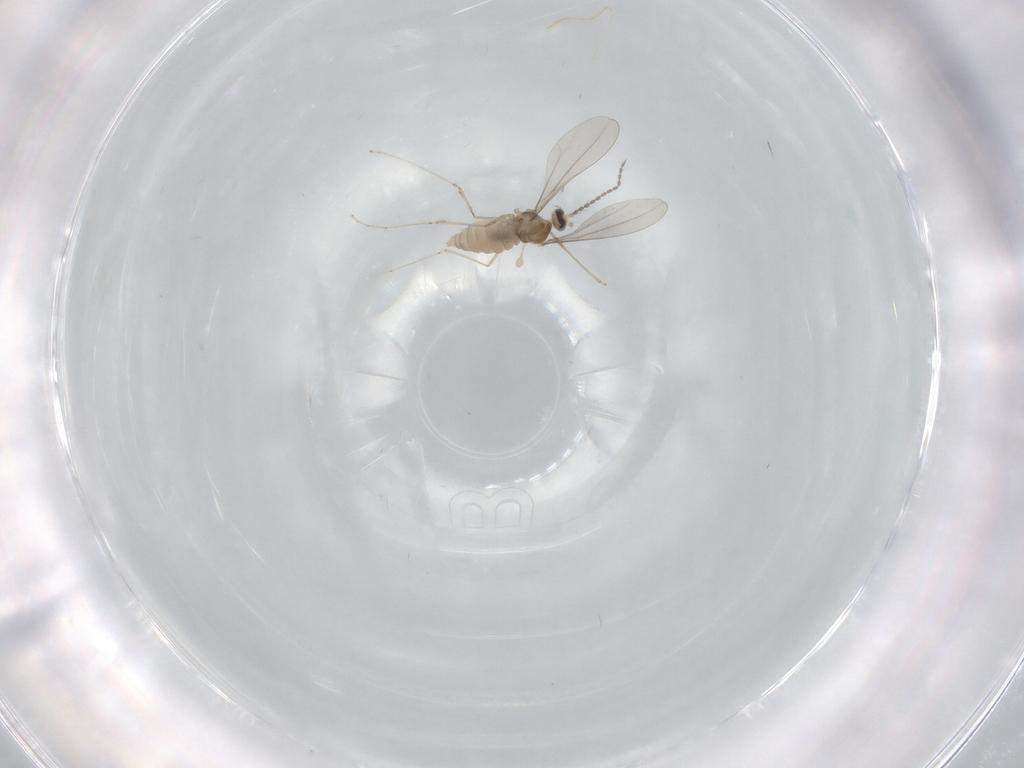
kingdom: Animalia
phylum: Arthropoda
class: Insecta
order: Diptera
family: Cecidomyiidae
